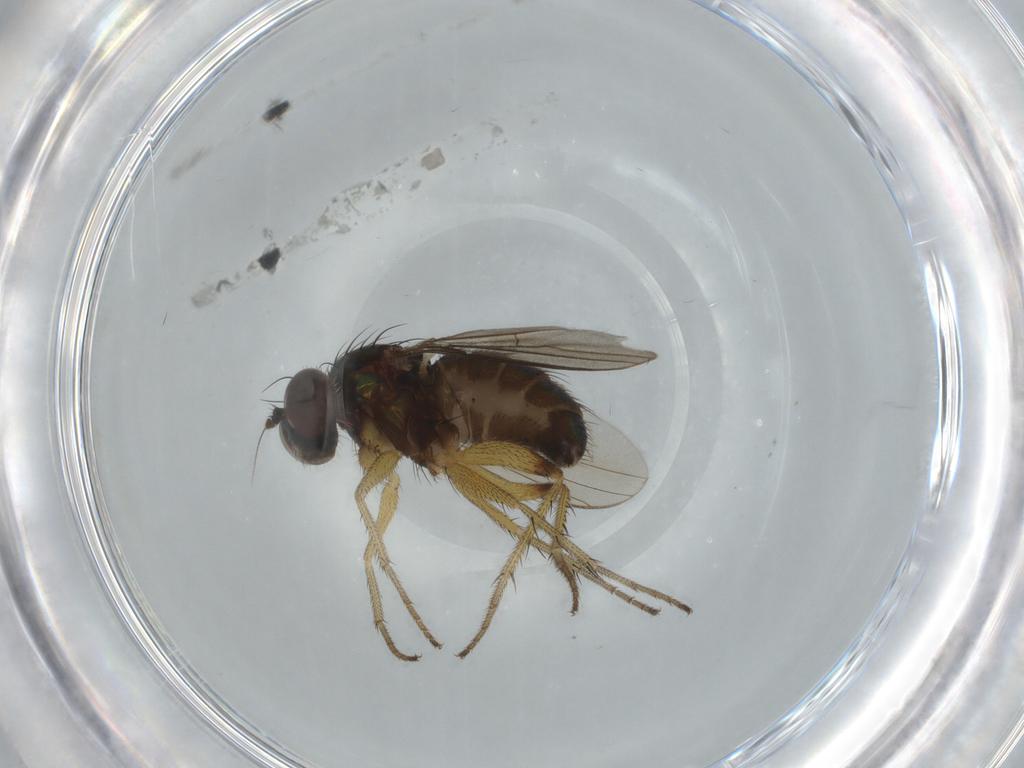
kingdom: Animalia
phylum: Arthropoda
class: Insecta
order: Diptera
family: Dolichopodidae
